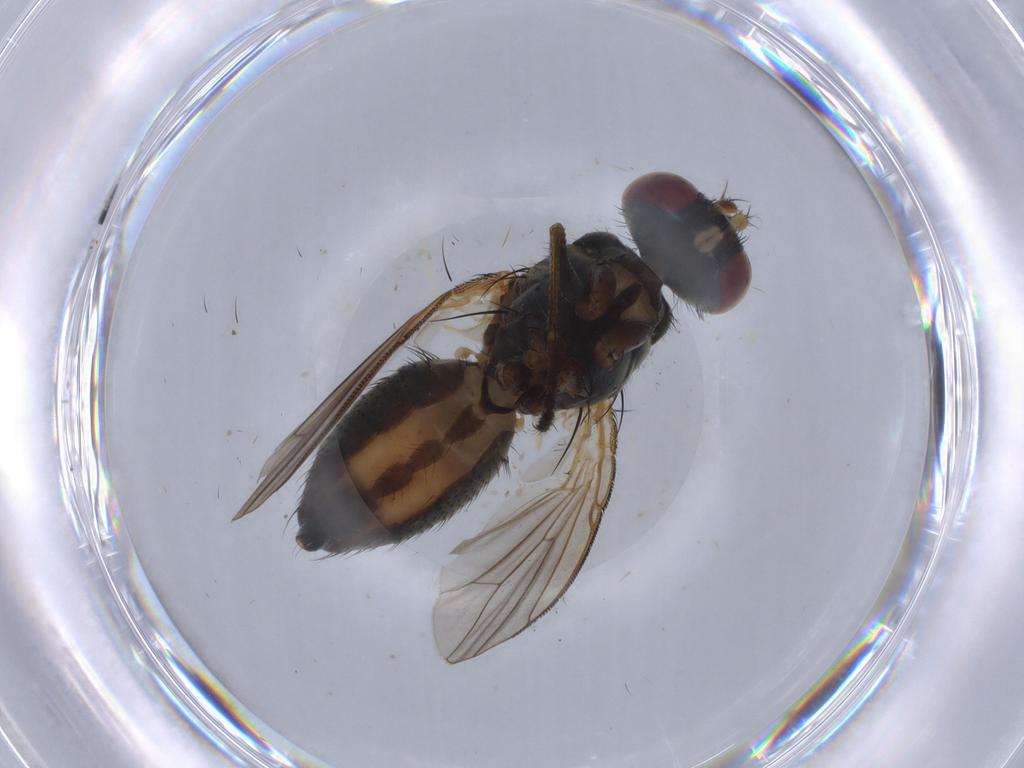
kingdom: Animalia
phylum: Arthropoda
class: Insecta
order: Diptera
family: Muscidae
